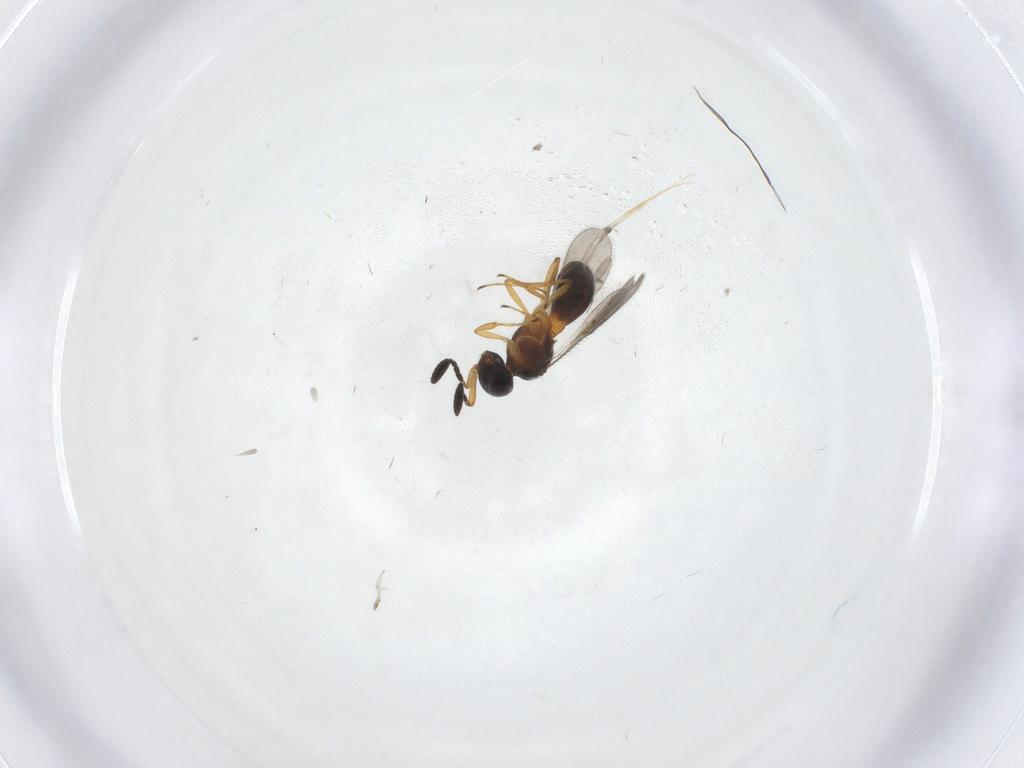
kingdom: Animalia
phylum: Arthropoda
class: Insecta
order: Hymenoptera
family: Scelionidae
